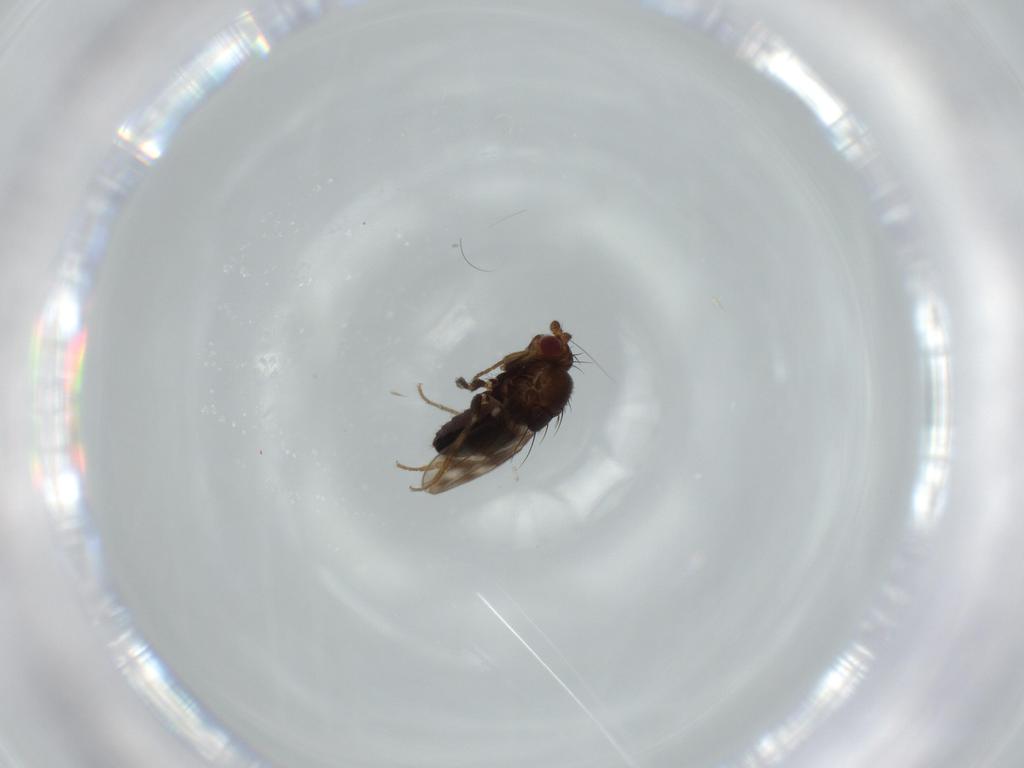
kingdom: Animalia
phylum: Arthropoda
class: Insecta
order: Diptera
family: Sphaeroceridae
